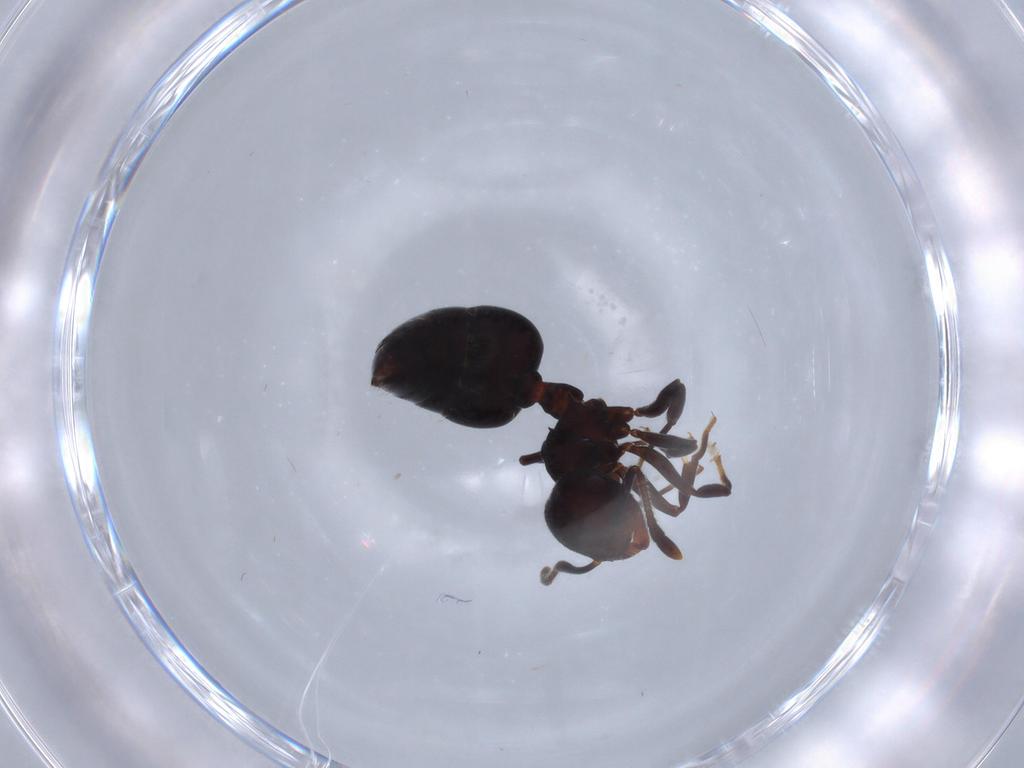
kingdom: Animalia
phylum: Arthropoda
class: Insecta
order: Hymenoptera
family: Formicidae
